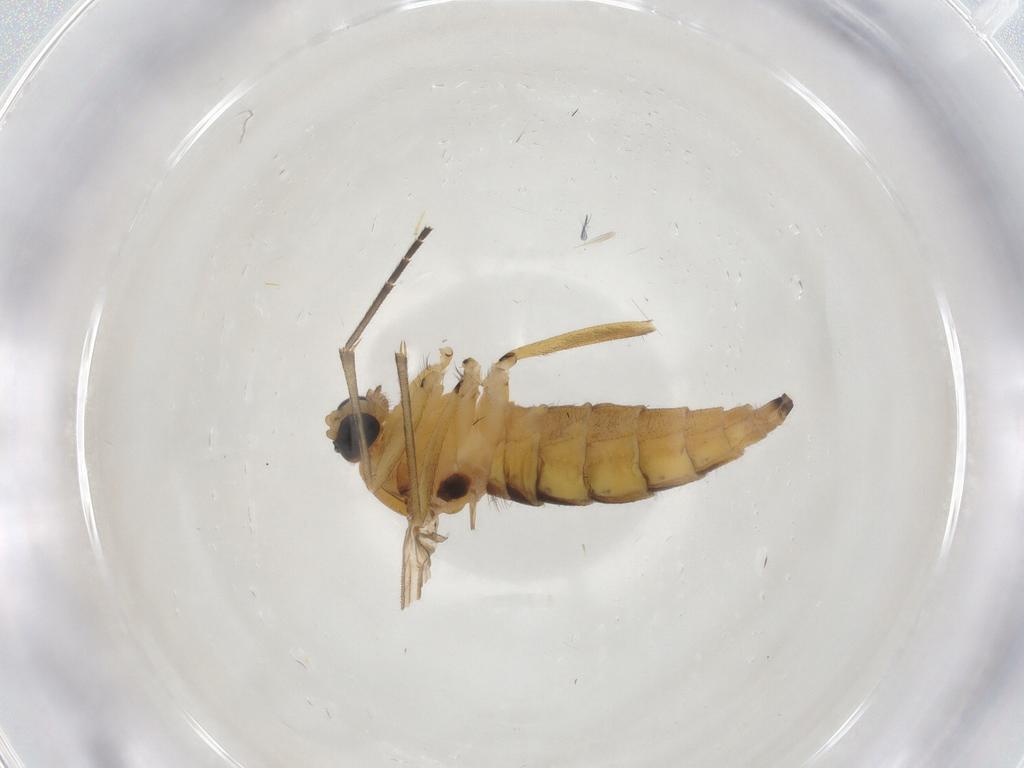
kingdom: Animalia
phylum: Arthropoda
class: Insecta
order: Diptera
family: Sciaridae
